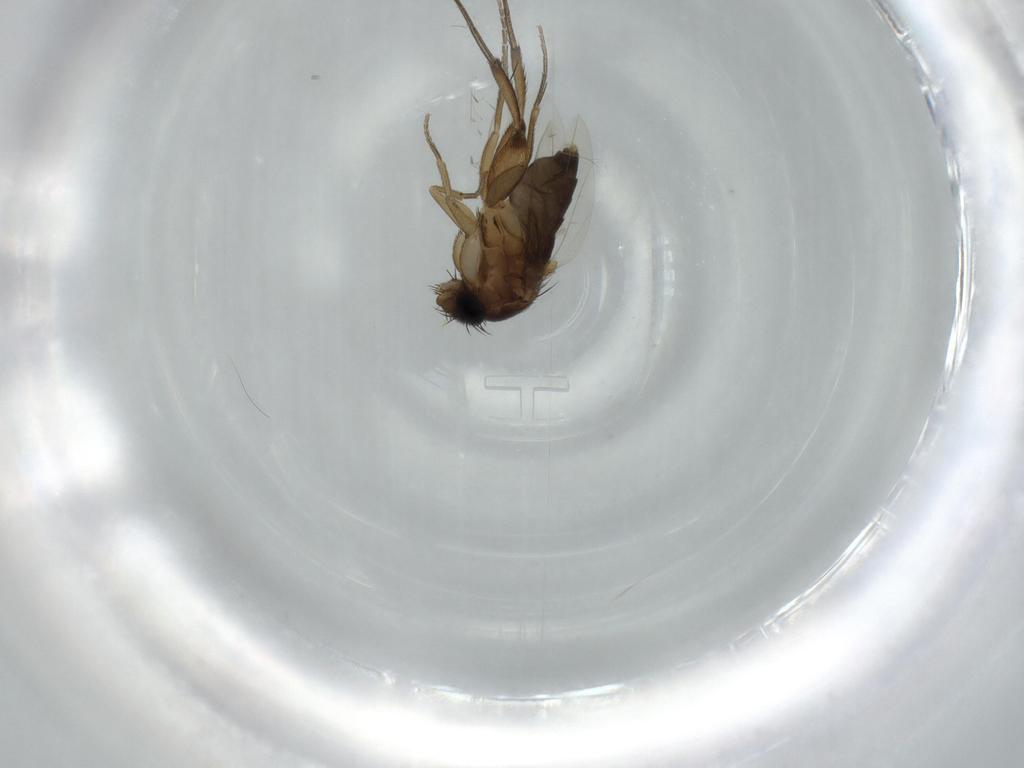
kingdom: Animalia
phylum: Arthropoda
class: Insecta
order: Diptera
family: Phoridae
